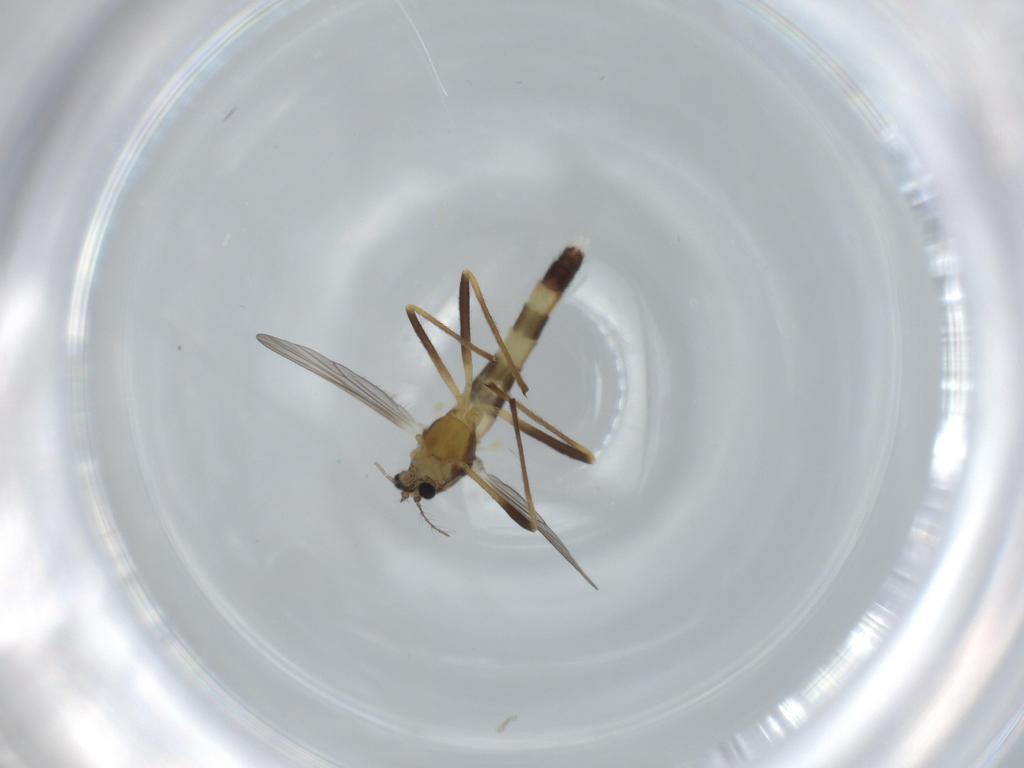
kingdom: Animalia
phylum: Arthropoda
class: Insecta
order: Diptera
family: Chironomidae
